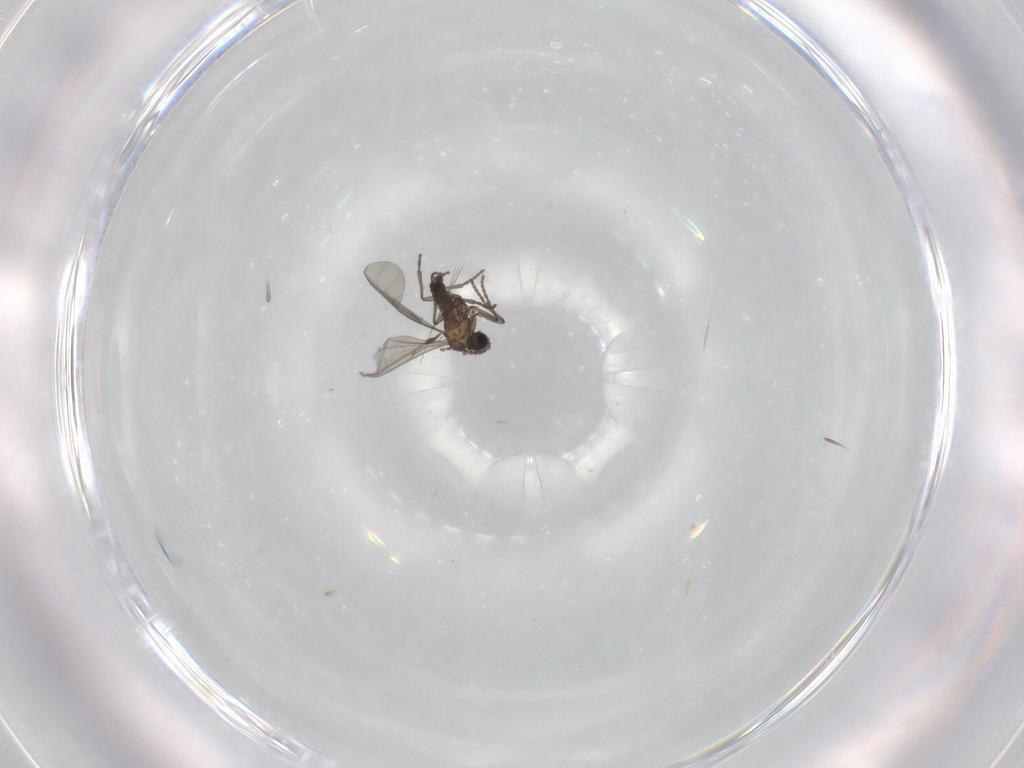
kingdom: Animalia
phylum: Arthropoda
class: Insecta
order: Diptera
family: Sciaridae
